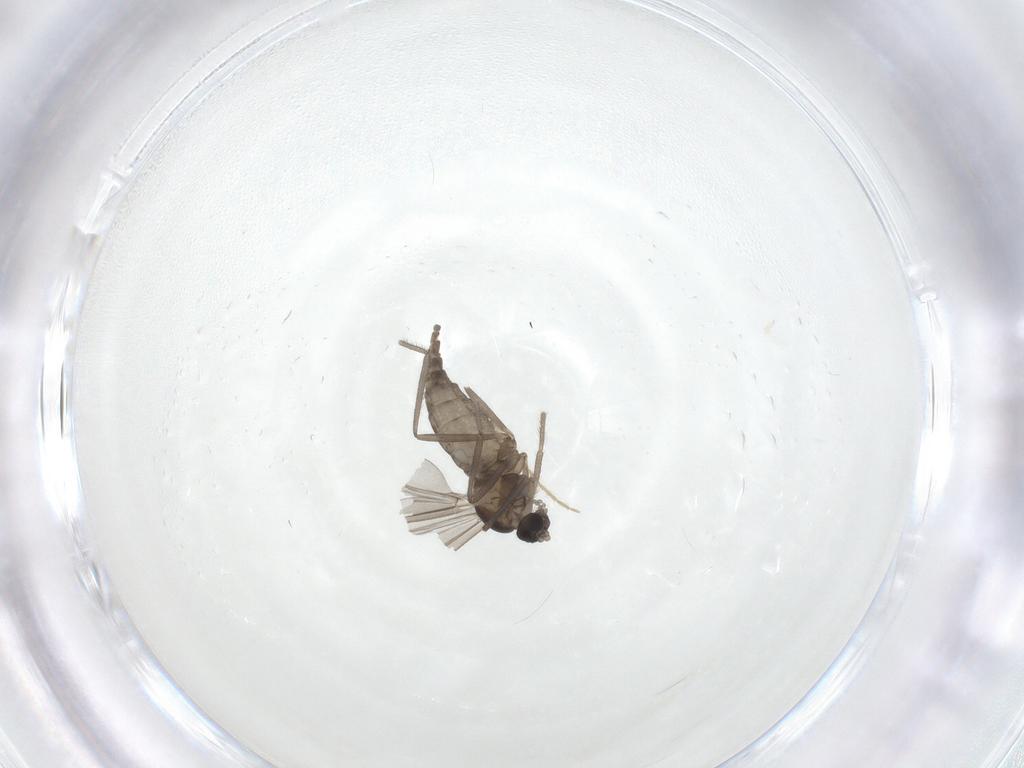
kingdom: Animalia
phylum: Arthropoda
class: Insecta
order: Diptera
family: Cecidomyiidae
